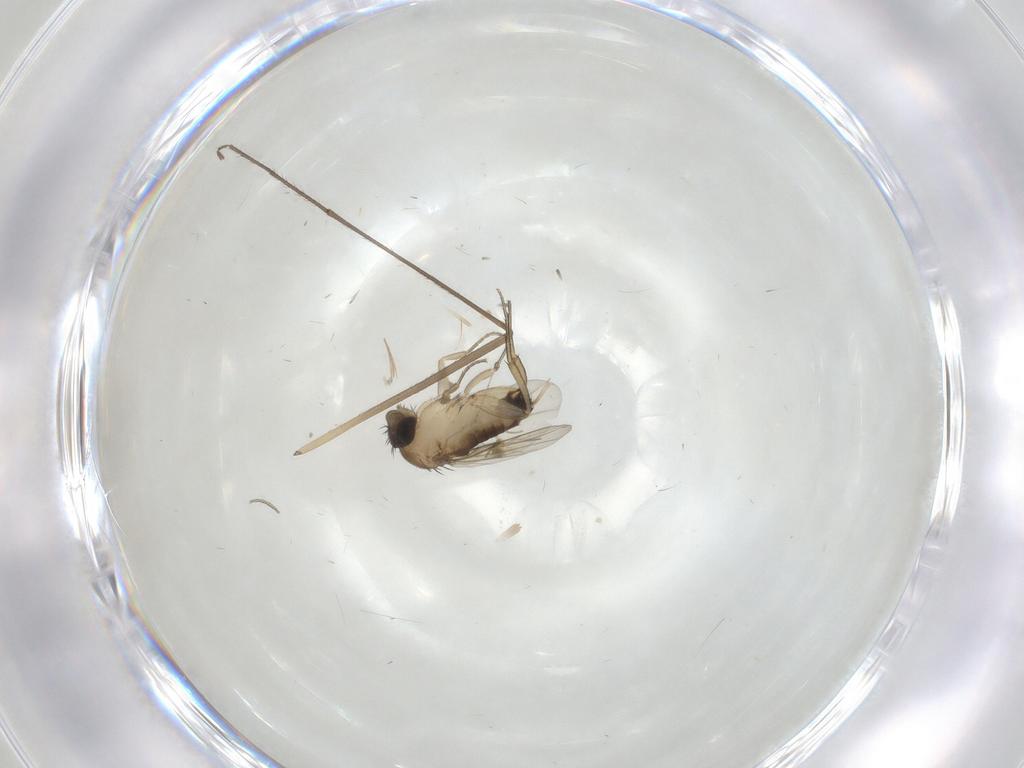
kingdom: Animalia
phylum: Arthropoda
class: Insecta
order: Diptera
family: Phoridae
